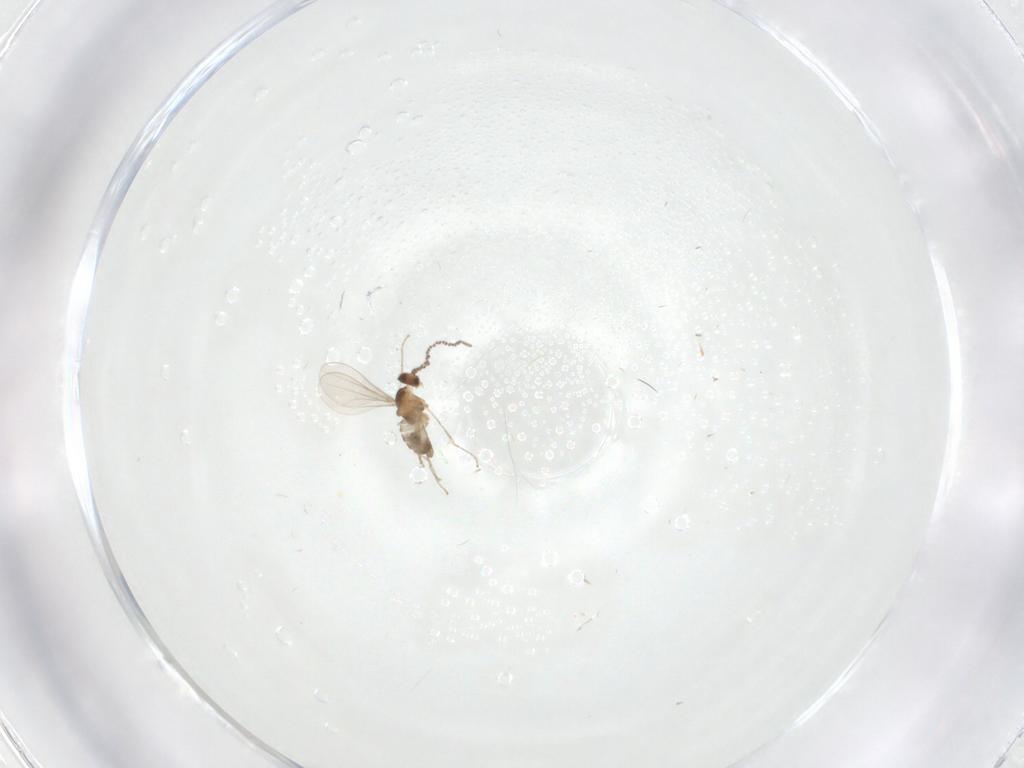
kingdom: Animalia
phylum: Arthropoda
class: Insecta
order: Diptera
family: Cecidomyiidae
